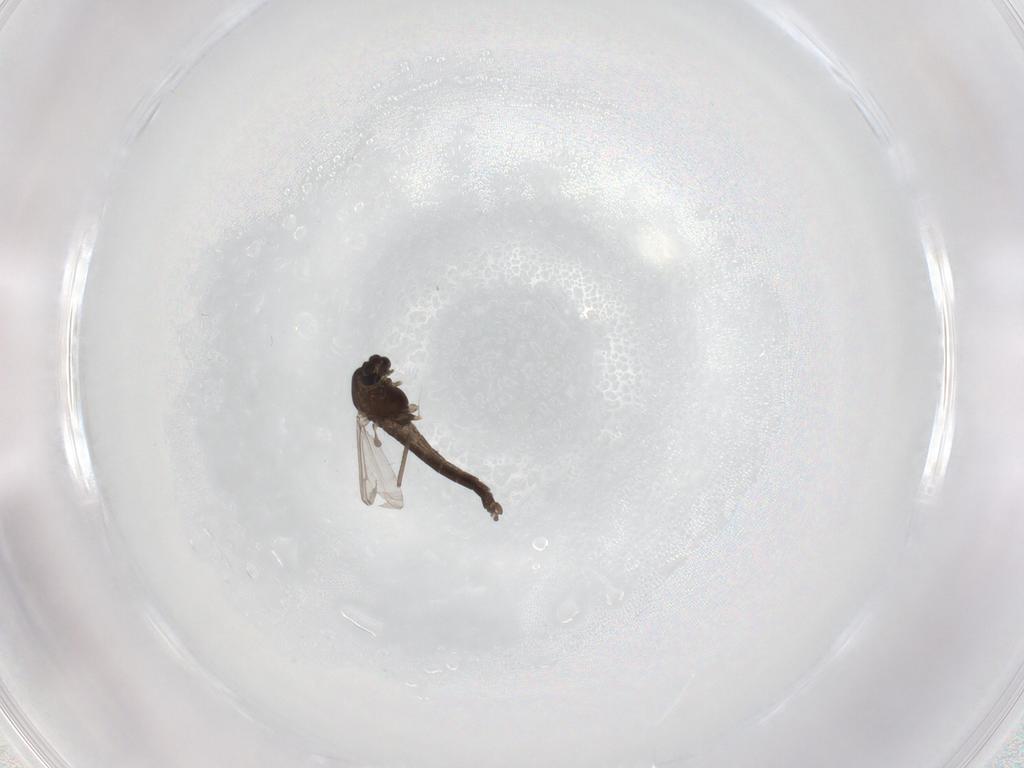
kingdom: Animalia
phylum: Arthropoda
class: Insecta
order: Diptera
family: Chironomidae
